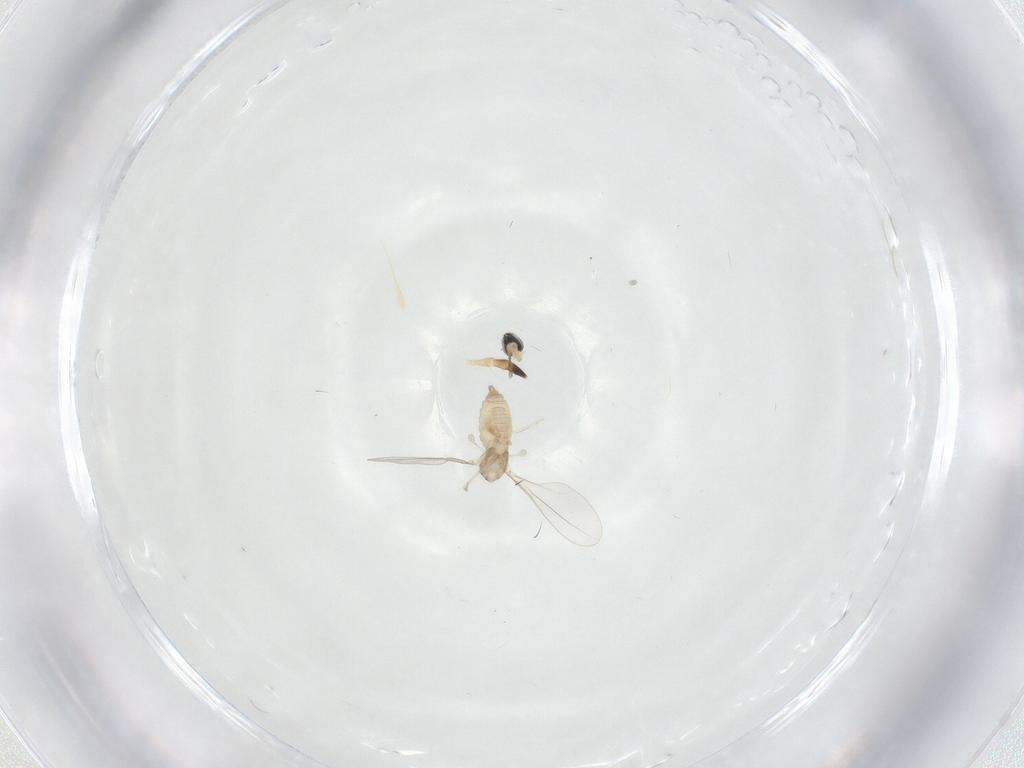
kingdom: Animalia
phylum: Arthropoda
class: Insecta
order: Diptera
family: Cecidomyiidae
